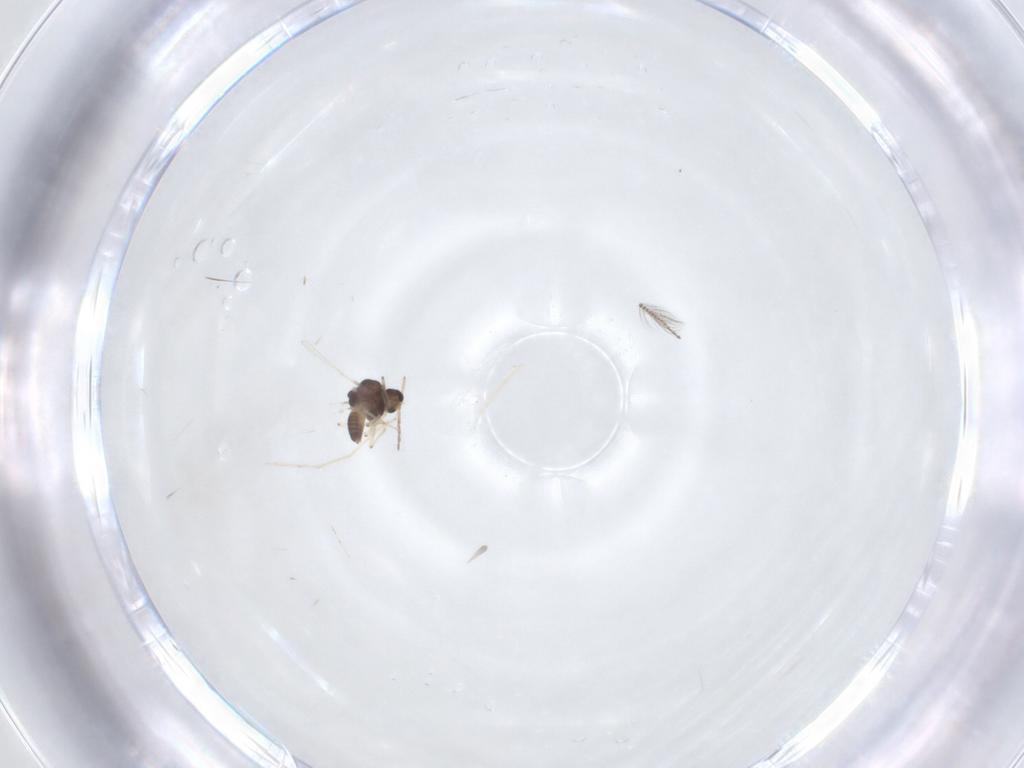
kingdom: Animalia
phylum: Arthropoda
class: Insecta
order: Diptera
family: Chironomidae
